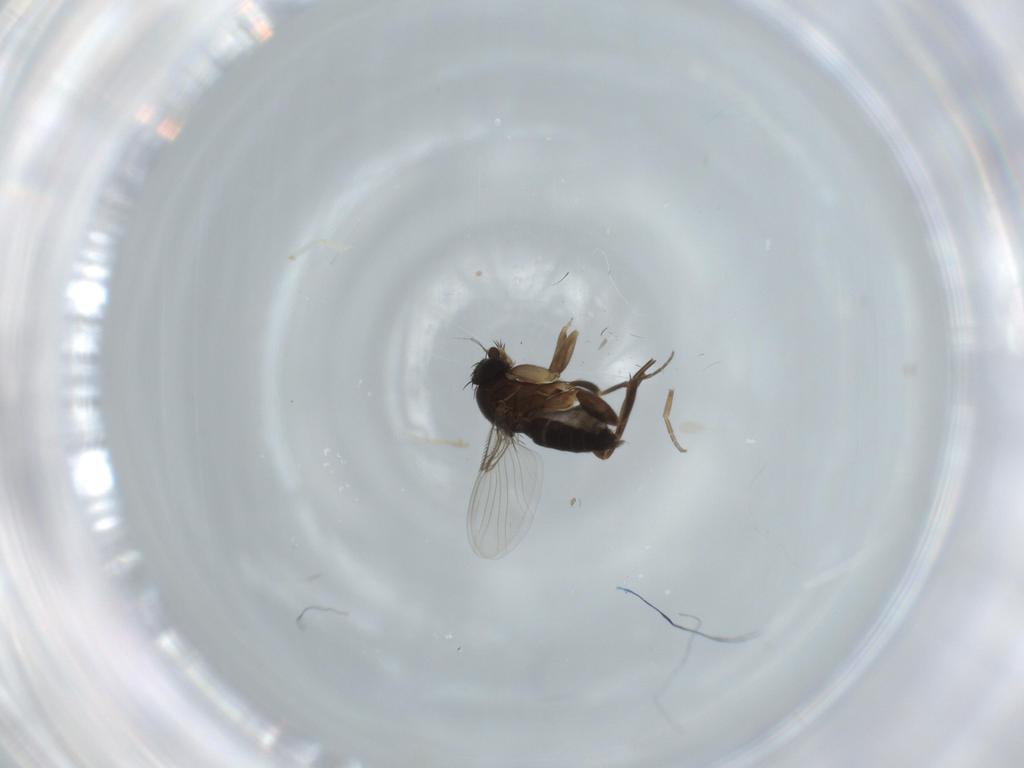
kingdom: Animalia
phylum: Arthropoda
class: Insecta
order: Diptera
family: Phoridae
